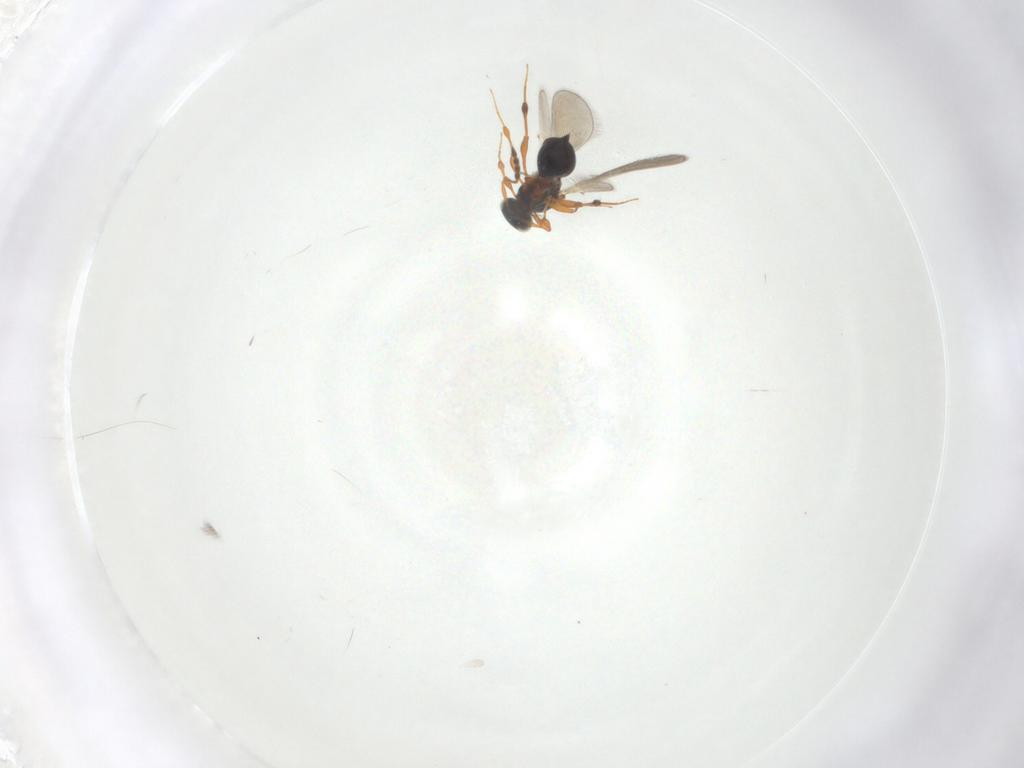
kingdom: Animalia
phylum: Arthropoda
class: Insecta
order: Hymenoptera
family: Platygastridae
